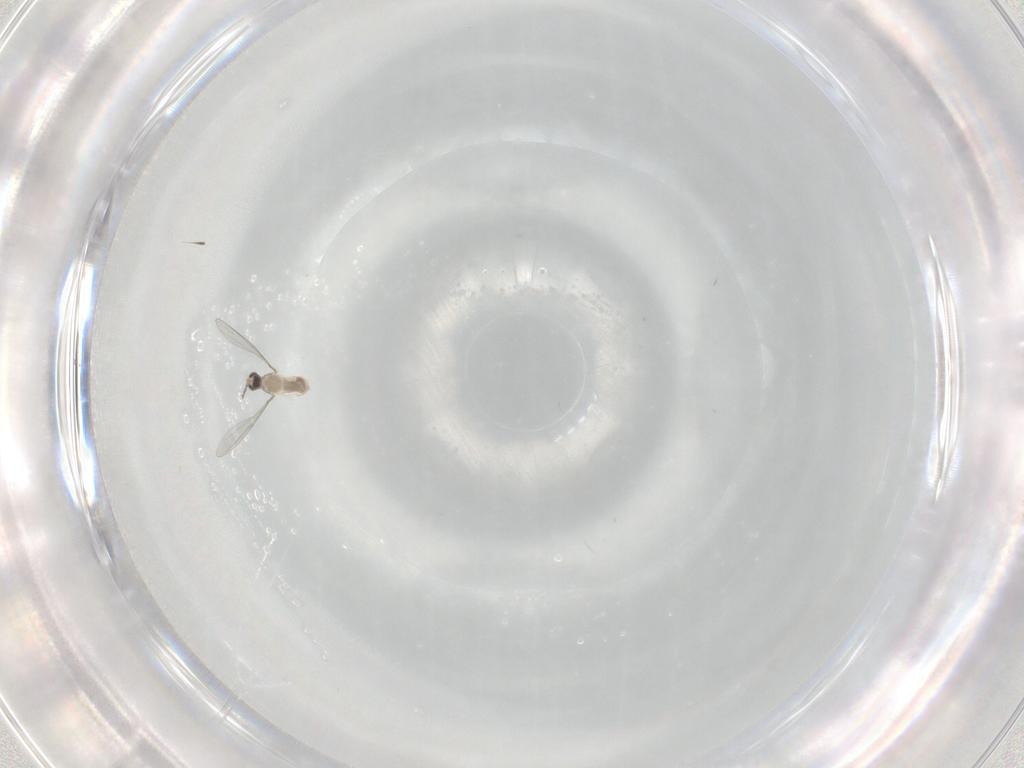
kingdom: Animalia
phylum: Arthropoda
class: Insecta
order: Diptera
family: Cecidomyiidae
